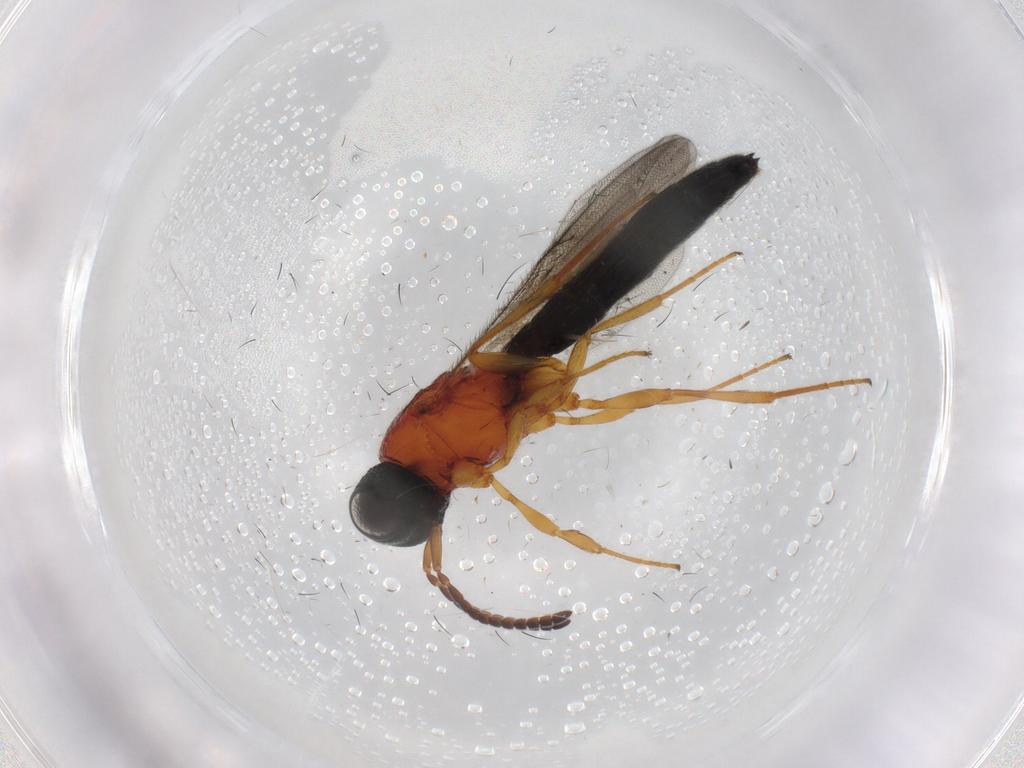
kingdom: Animalia
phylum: Arthropoda
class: Insecta
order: Hymenoptera
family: Scelionidae
